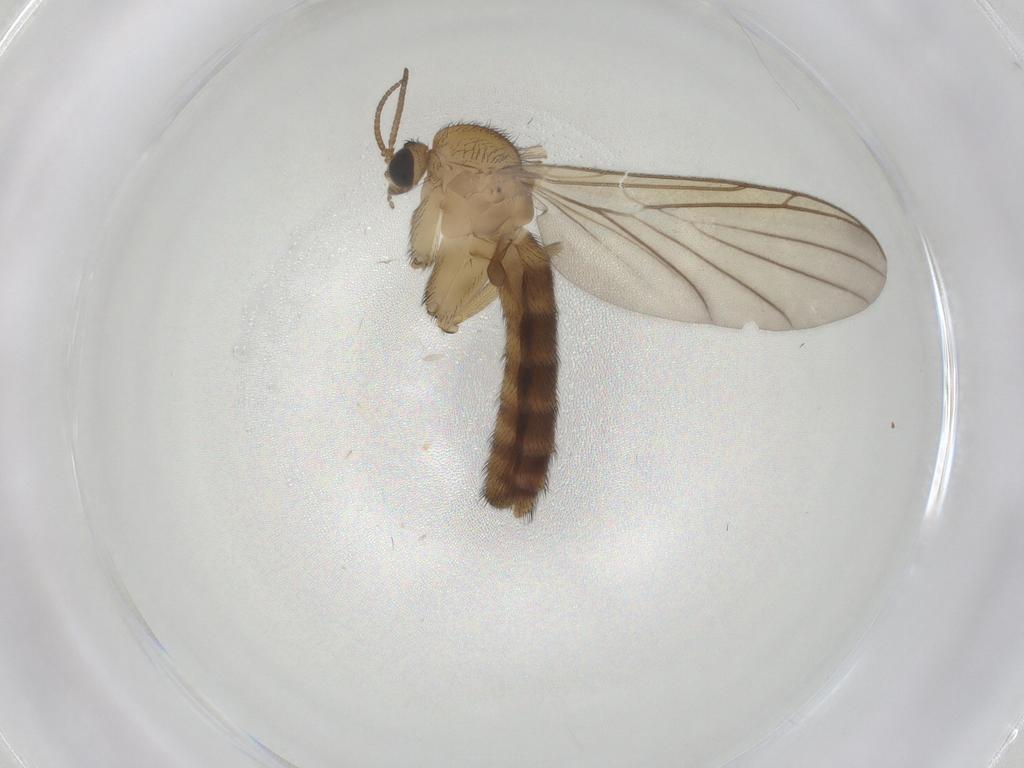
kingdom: Animalia
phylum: Arthropoda
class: Insecta
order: Diptera
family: Keroplatidae
